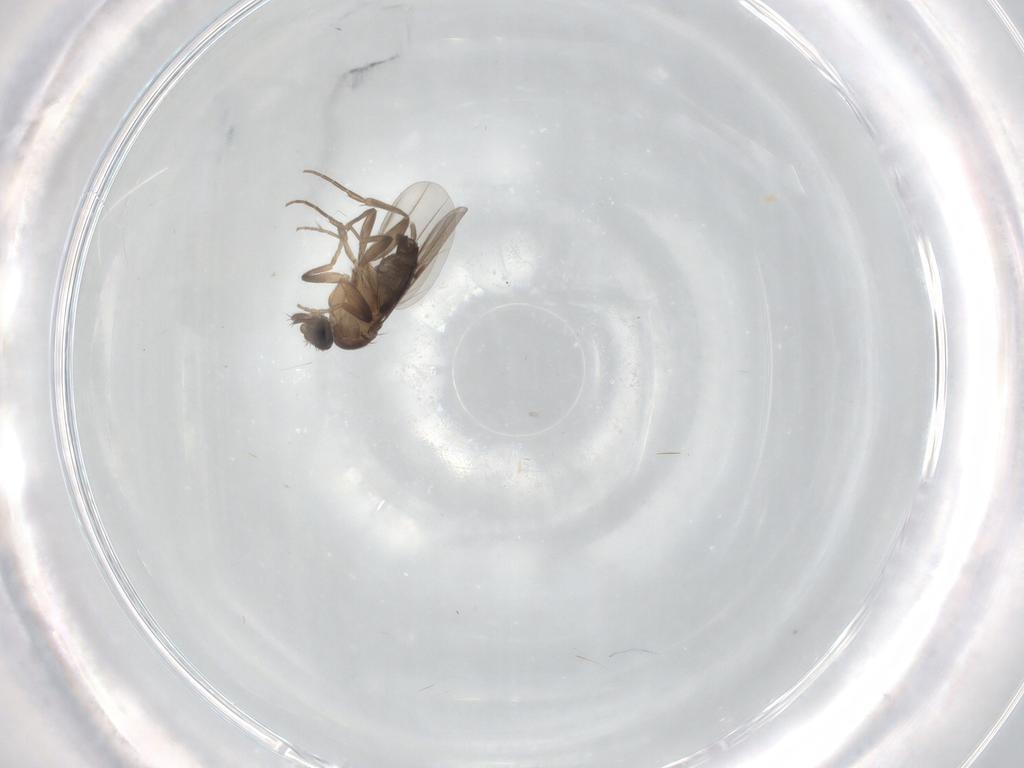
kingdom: Animalia
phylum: Arthropoda
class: Insecta
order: Diptera
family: Phoridae
